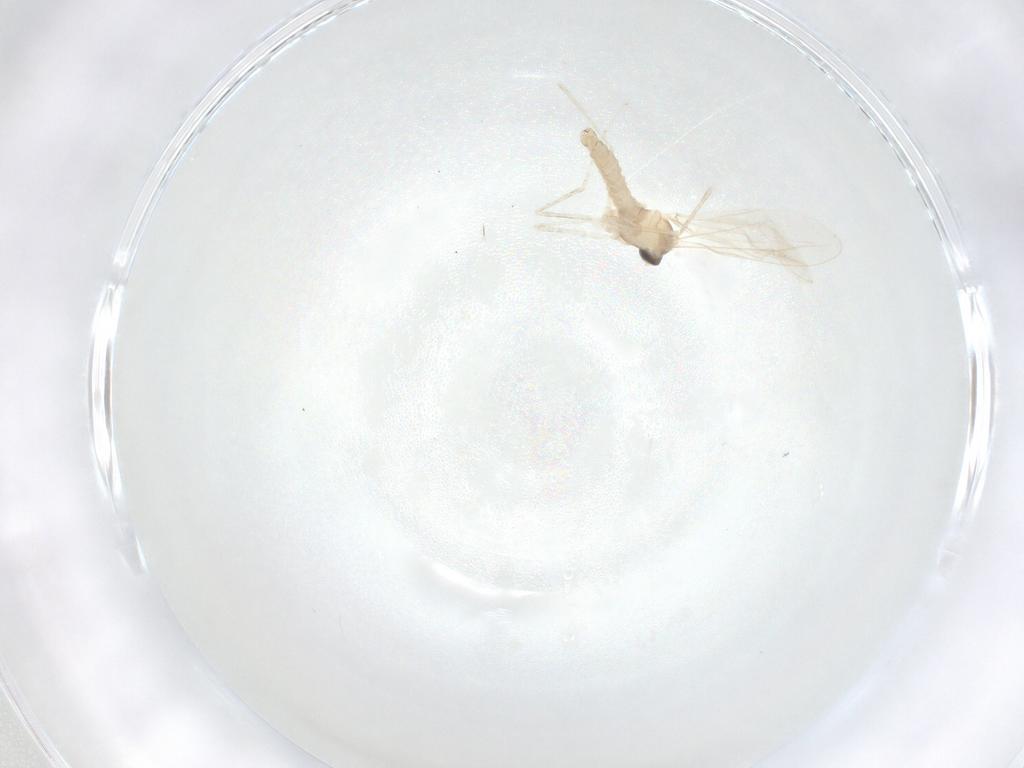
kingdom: Animalia
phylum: Arthropoda
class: Insecta
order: Diptera
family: Cecidomyiidae
